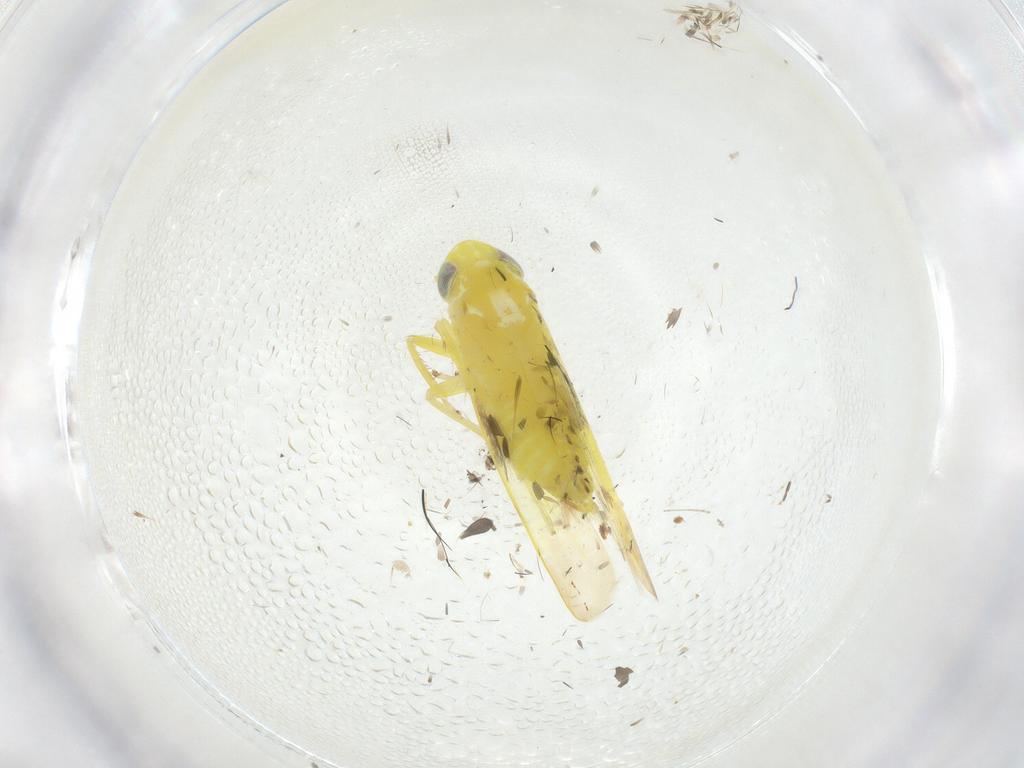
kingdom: Animalia
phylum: Arthropoda
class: Insecta
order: Hemiptera
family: Cicadellidae
